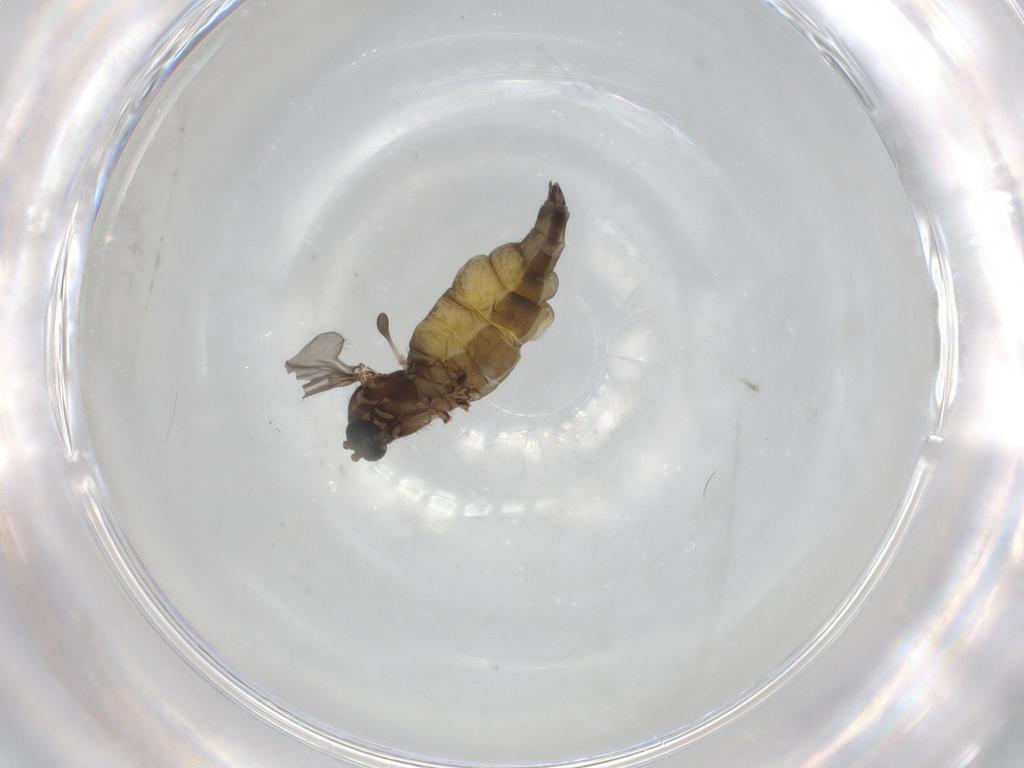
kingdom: Animalia
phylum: Arthropoda
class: Insecta
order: Diptera
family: Sciaridae
